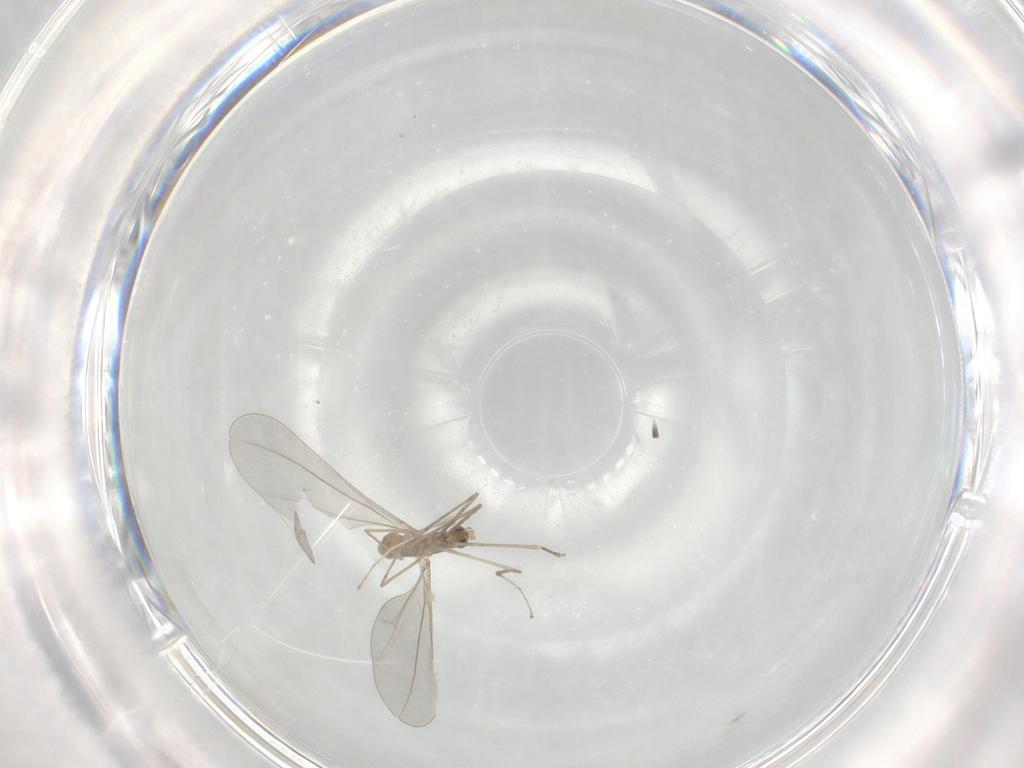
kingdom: Animalia
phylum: Arthropoda
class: Insecta
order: Diptera
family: Cecidomyiidae
